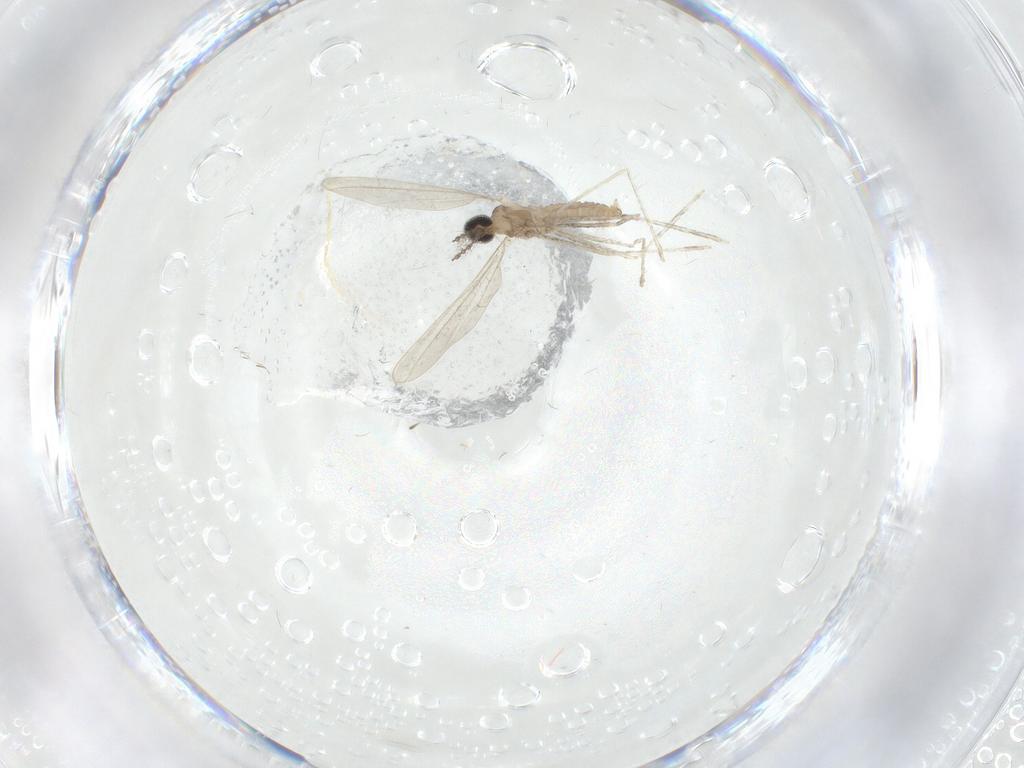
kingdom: Animalia
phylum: Arthropoda
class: Insecta
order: Diptera
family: Cecidomyiidae
